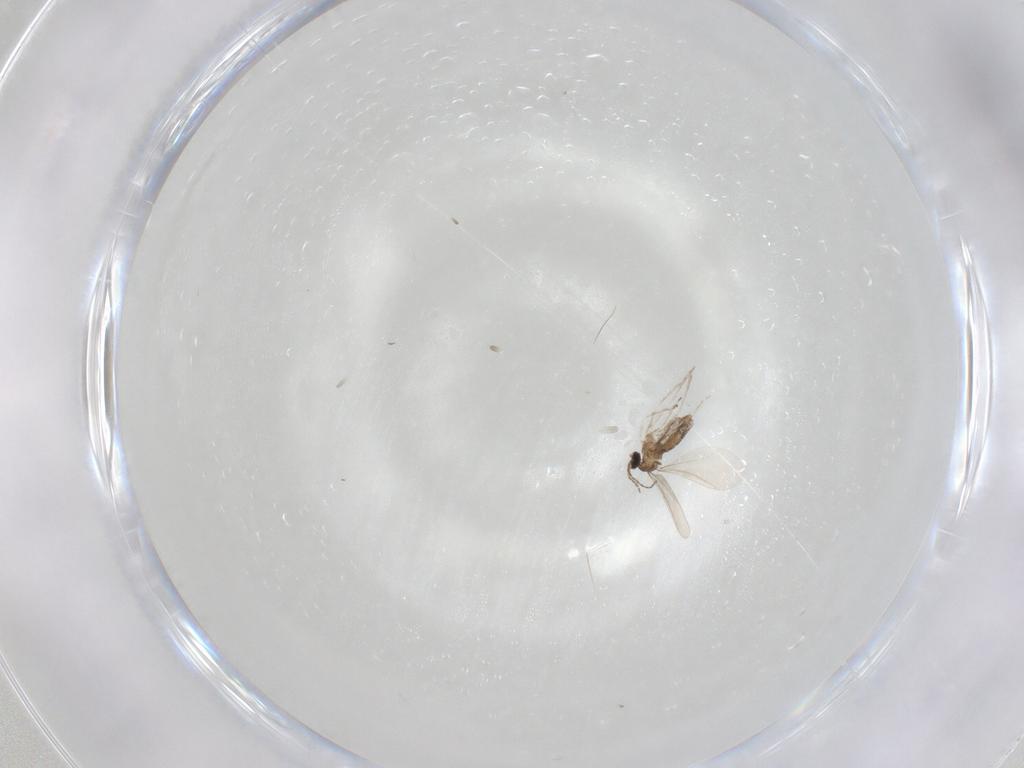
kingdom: Animalia
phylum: Arthropoda
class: Insecta
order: Diptera
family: Cecidomyiidae
